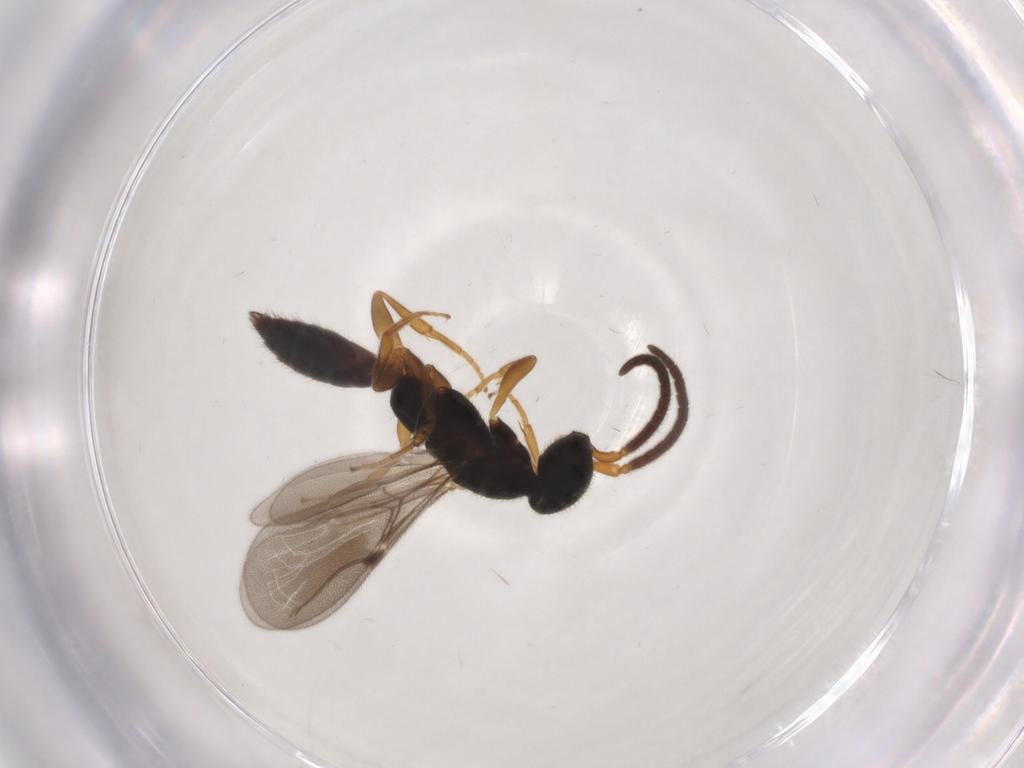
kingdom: Animalia
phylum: Arthropoda
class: Insecta
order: Hymenoptera
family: Bethylidae
